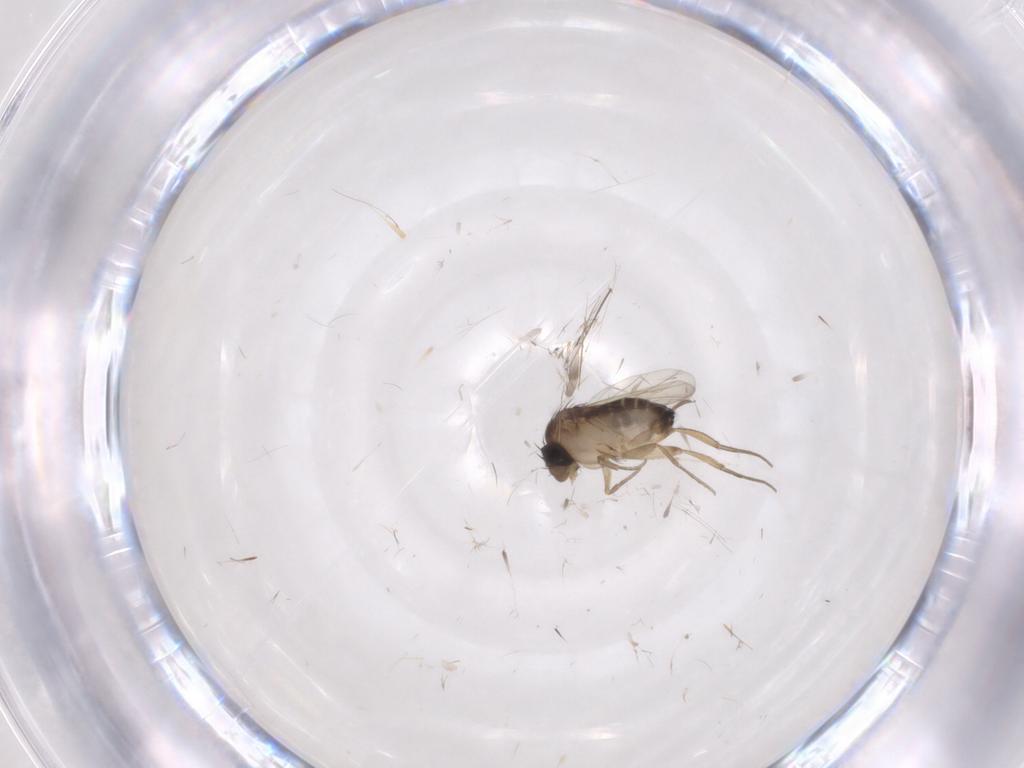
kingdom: Animalia
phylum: Arthropoda
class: Insecta
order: Diptera
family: Cecidomyiidae
